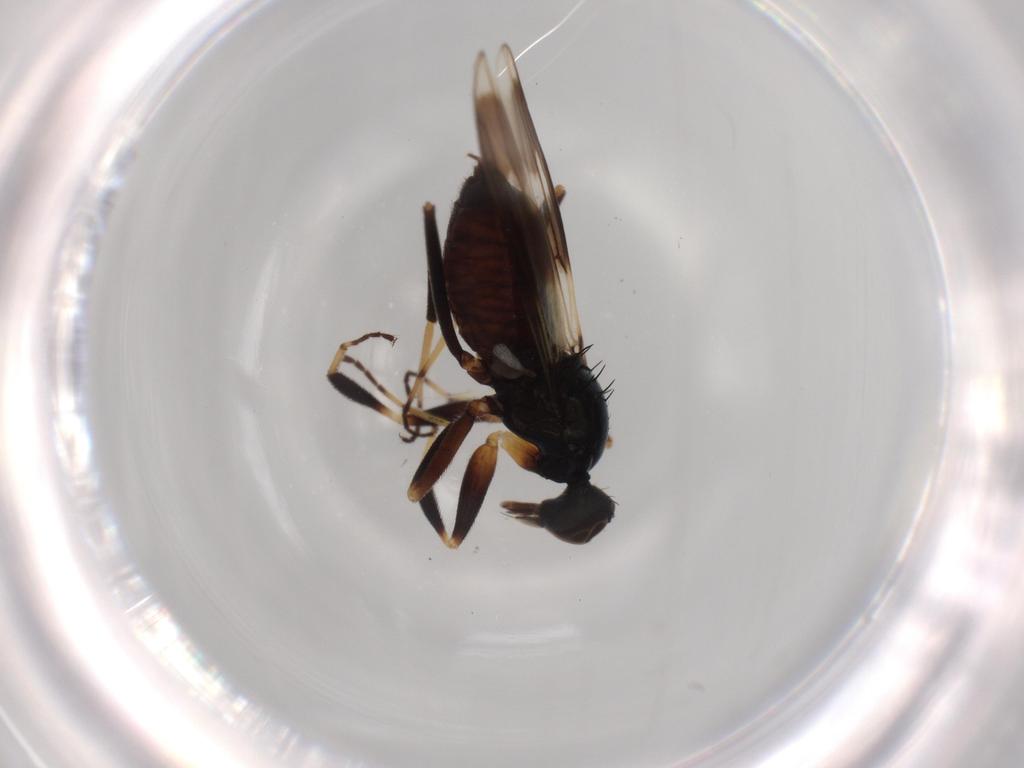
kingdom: Animalia
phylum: Arthropoda
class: Insecta
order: Diptera
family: Hybotidae
